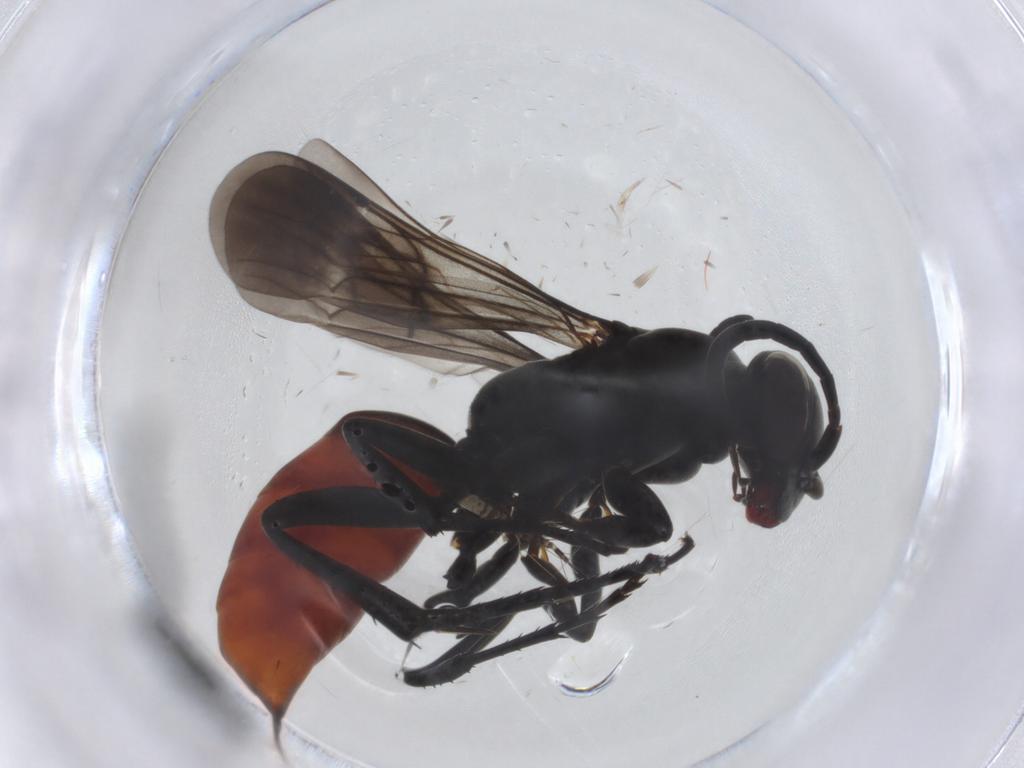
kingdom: Animalia
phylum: Arthropoda
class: Insecta
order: Hymenoptera
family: Pompilidae
